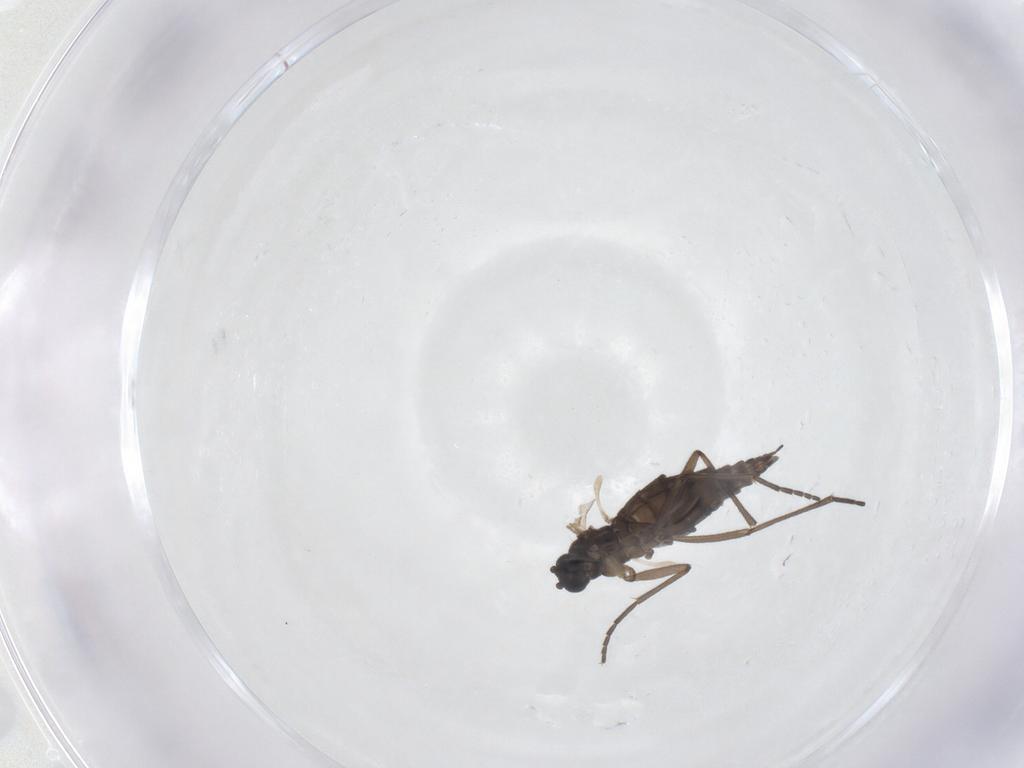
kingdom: Animalia
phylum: Arthropoda
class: Insecta
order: Diptera
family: Sciaridae
